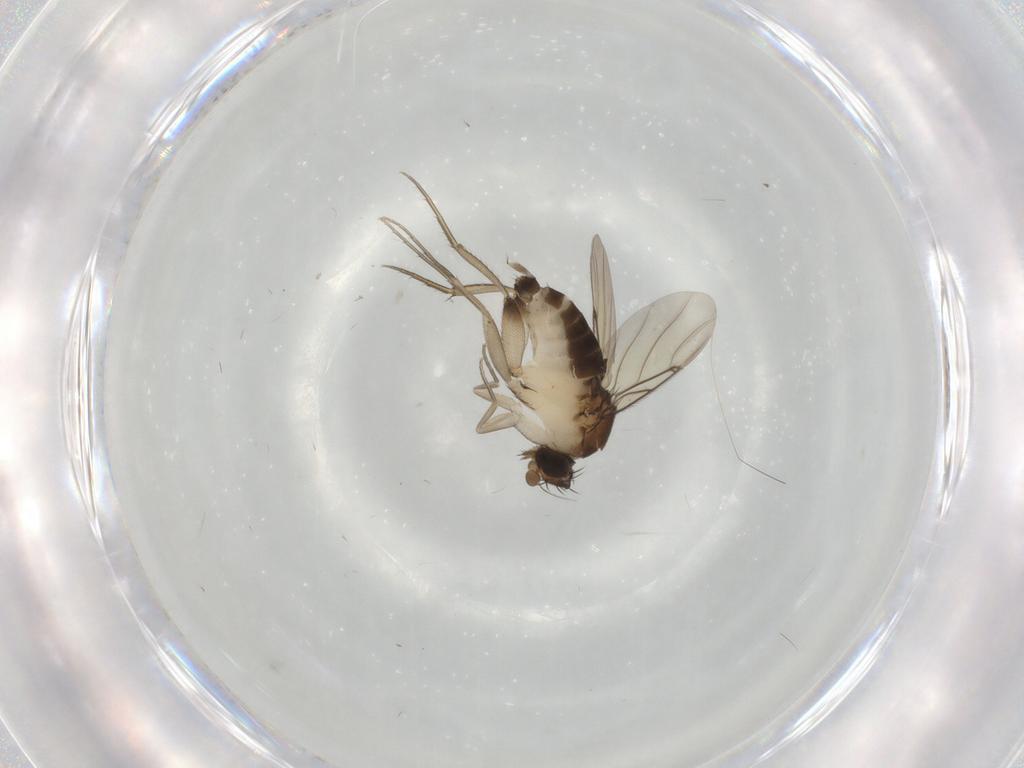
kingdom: Animalia
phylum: Arthropoda
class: Insecta
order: Diptera
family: Phoridae
